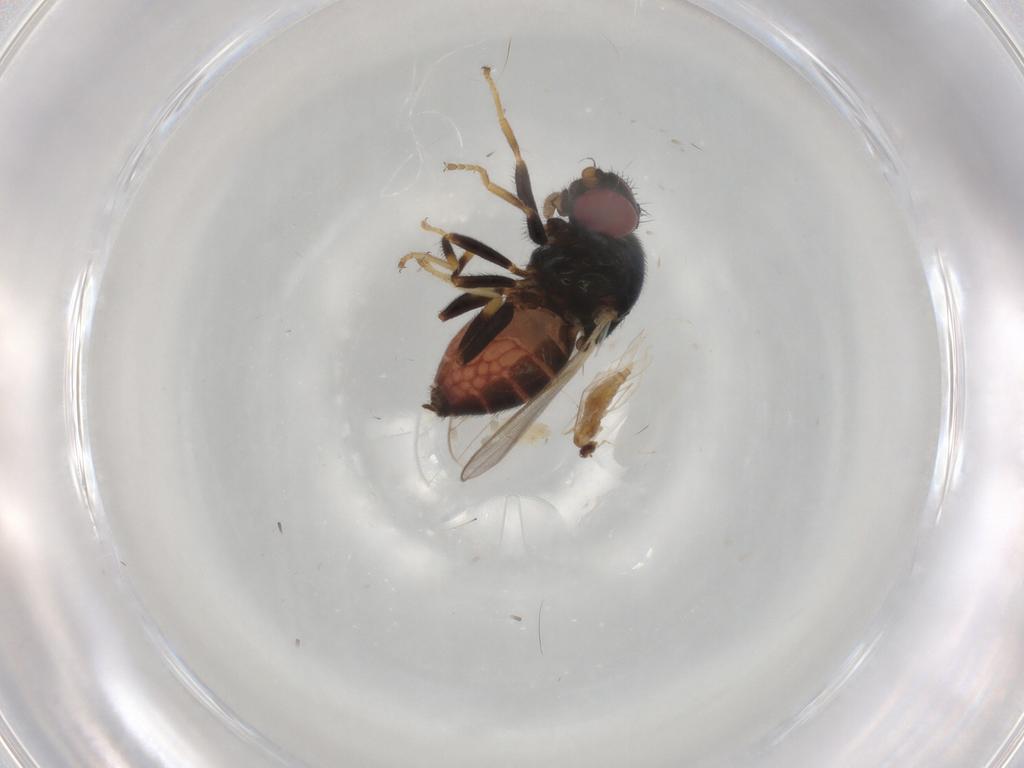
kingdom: Animalia
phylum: Arthropoda
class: Insecta
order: Diptera
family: Chloropidae
